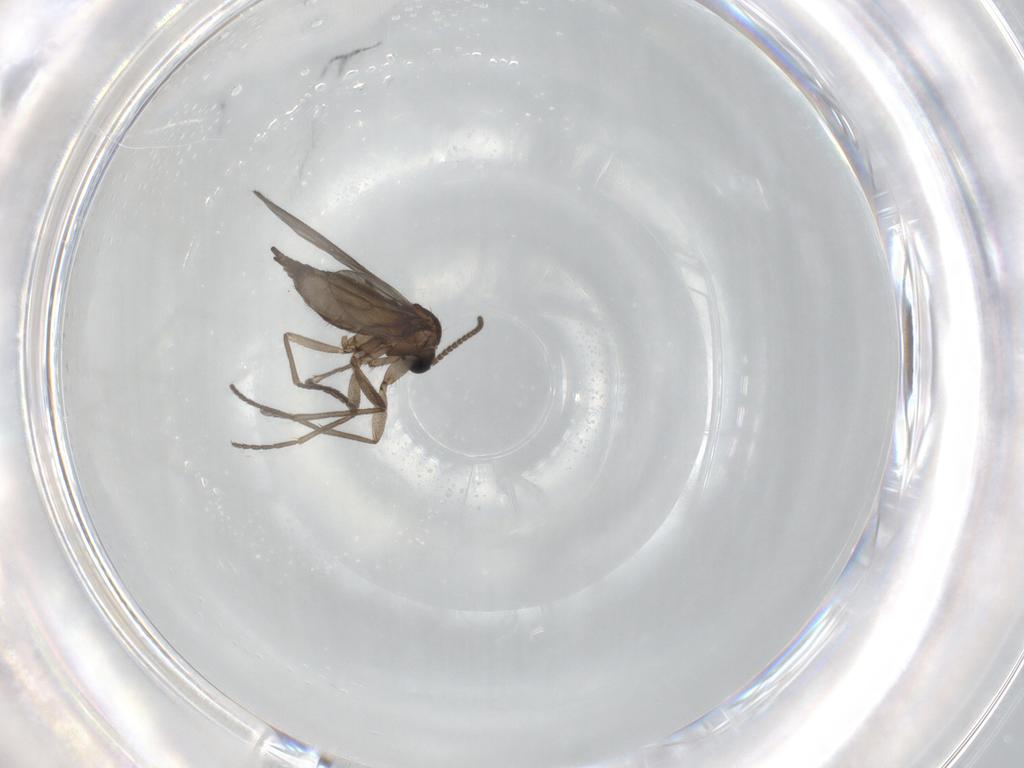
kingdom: Animalia
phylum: Arthropoda
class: Insecta
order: Diptera
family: Sciaridae
